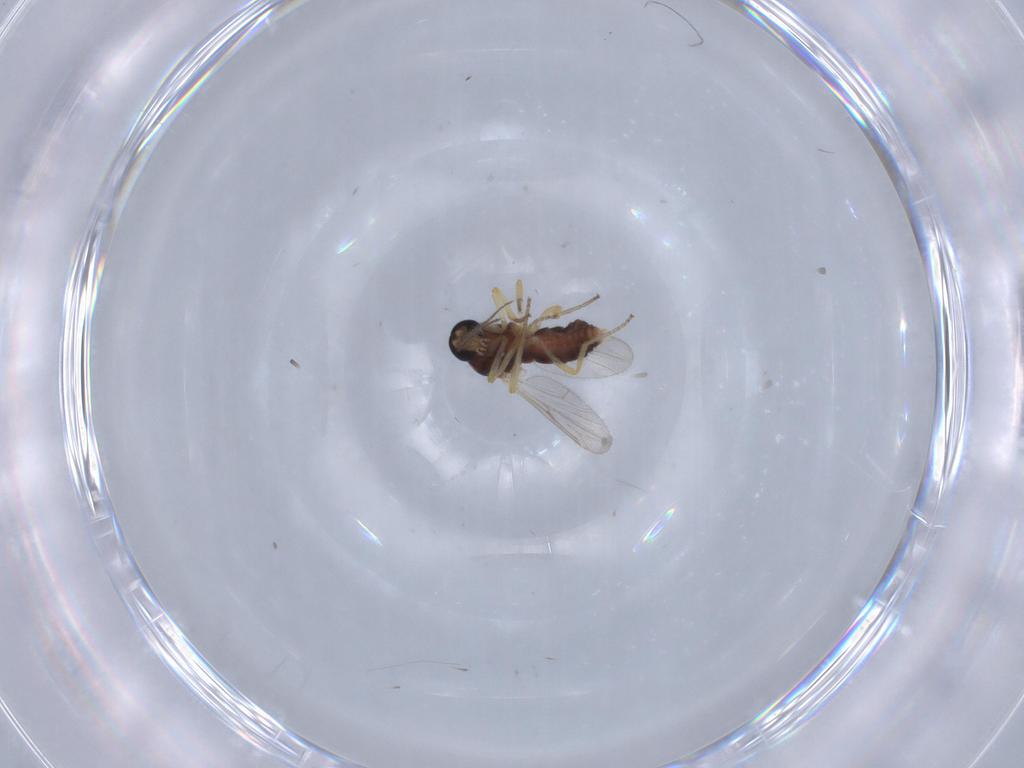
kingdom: Animalia
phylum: Arthropoda
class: Insecta
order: Diptera
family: Ceratopogonidae
